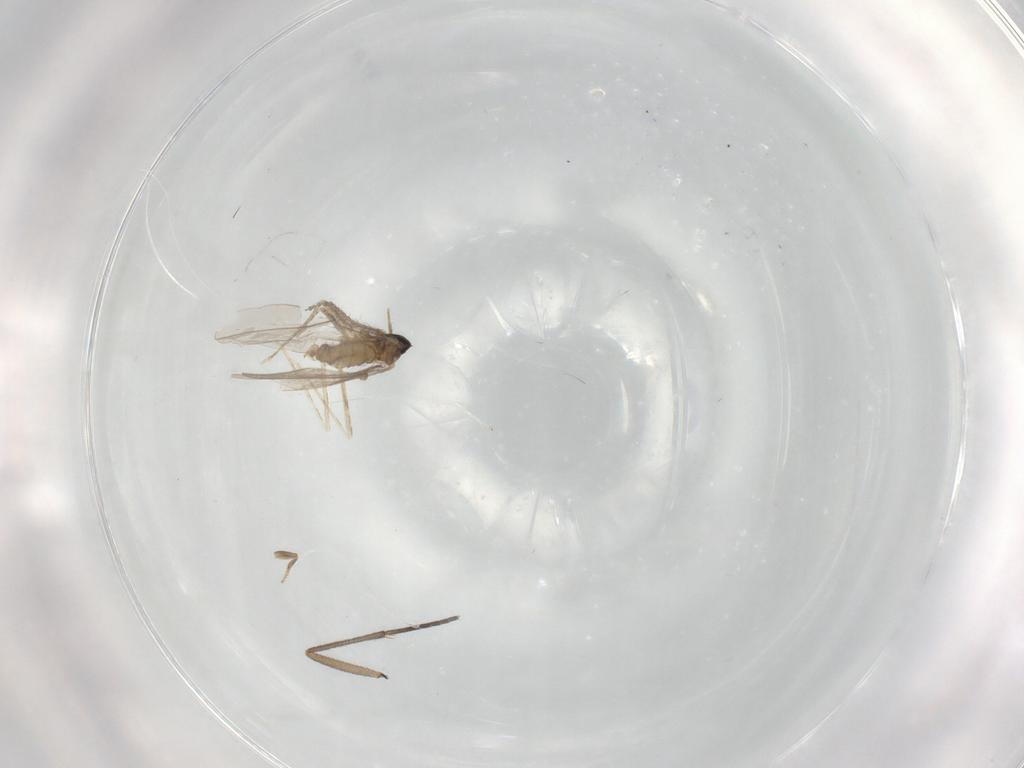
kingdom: Animalia
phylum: Arthropoda
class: Insecta
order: Diptera
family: Cecidomyiidae
